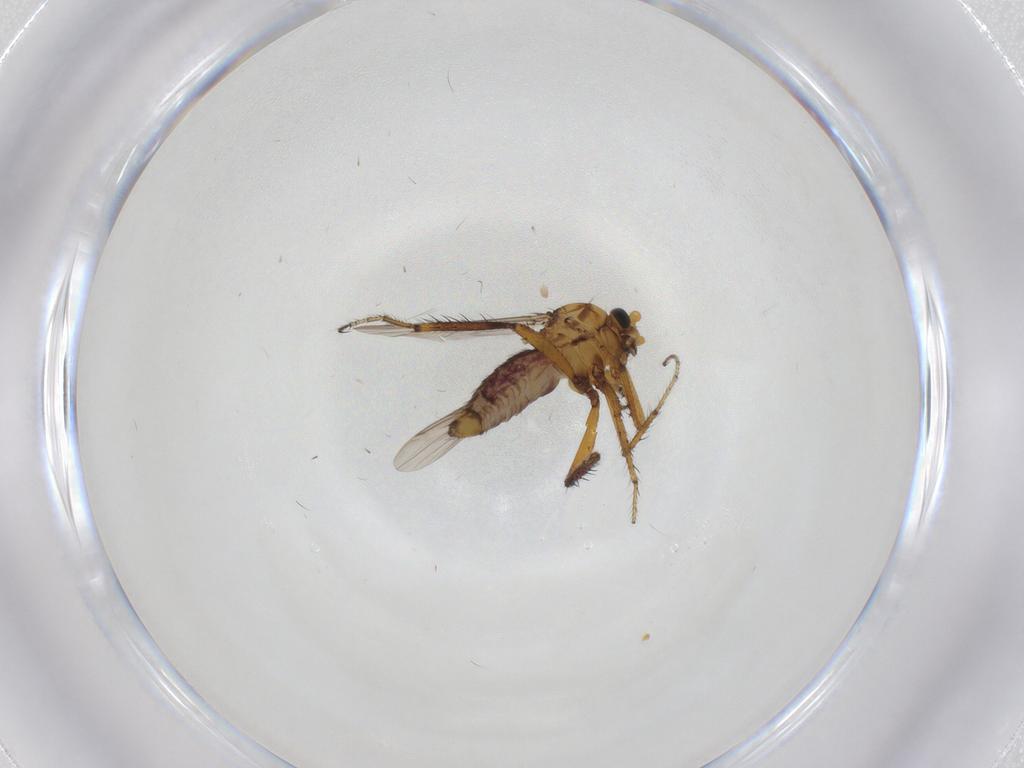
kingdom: Animalia
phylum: Arthropoda
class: Insecta
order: Diptera
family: Ceratopogonidae
